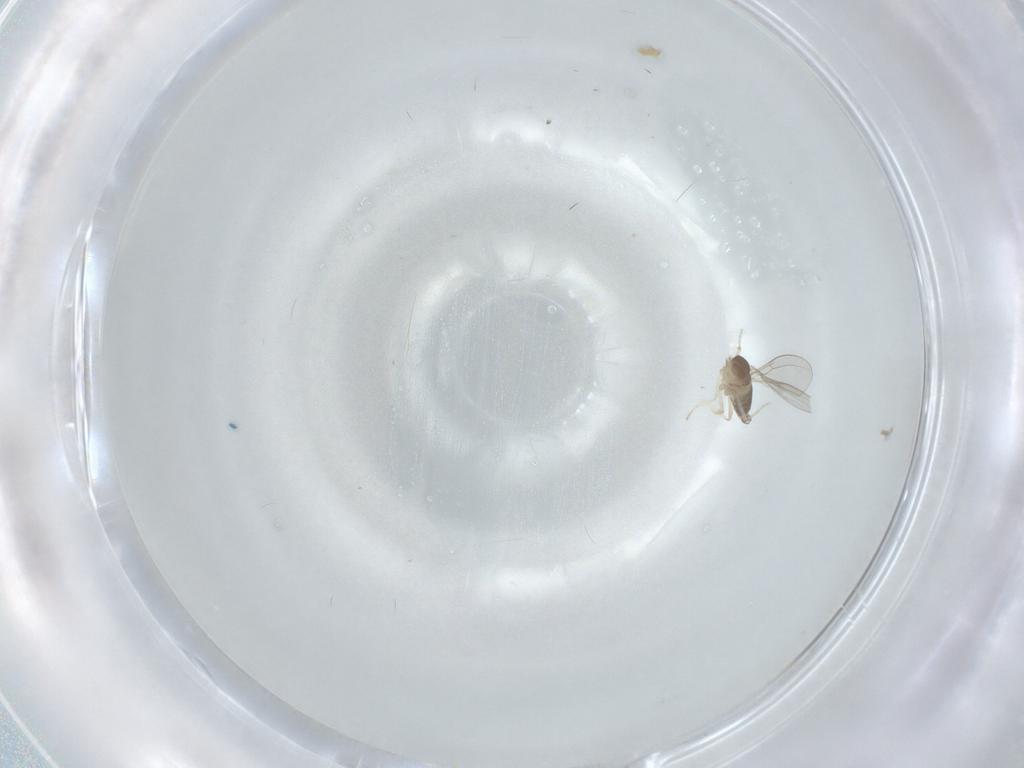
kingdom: Animalia
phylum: Arthropoda
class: Insecta
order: Diptera
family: Cecidomyiidae
